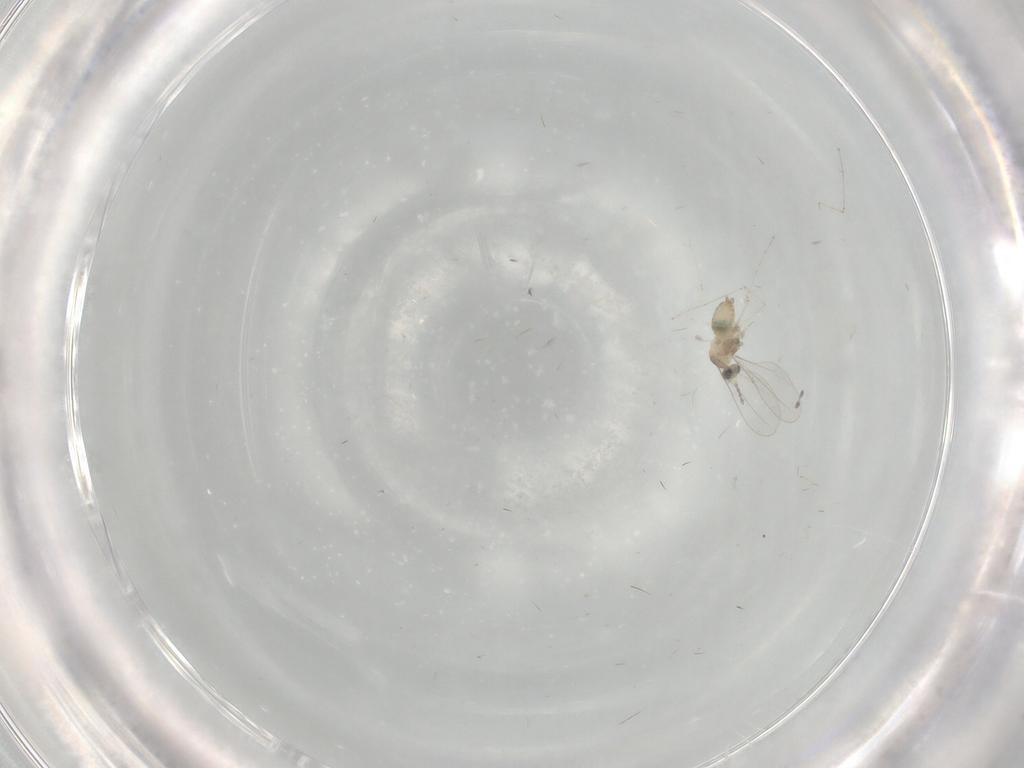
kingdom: Animalia
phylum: Arthropoda
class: Insecta
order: Diptera
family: Cecidomyiidae
